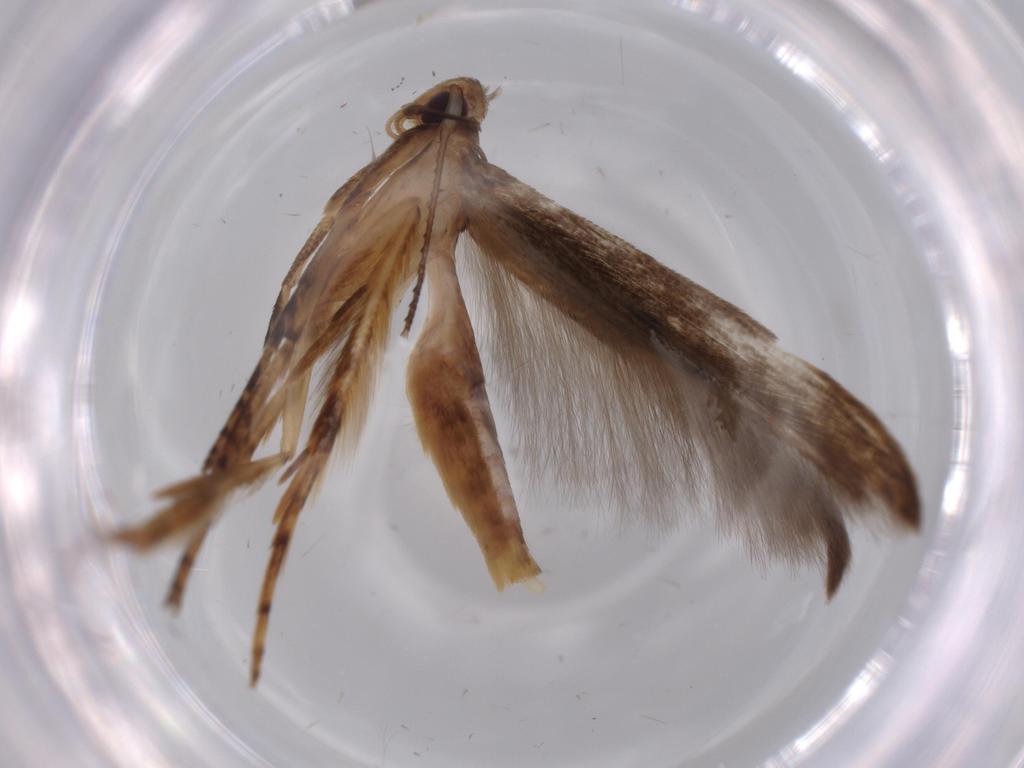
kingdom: Animalia
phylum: Arthropoda
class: Insecta
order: Lepidoptera
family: Heliodinidae
